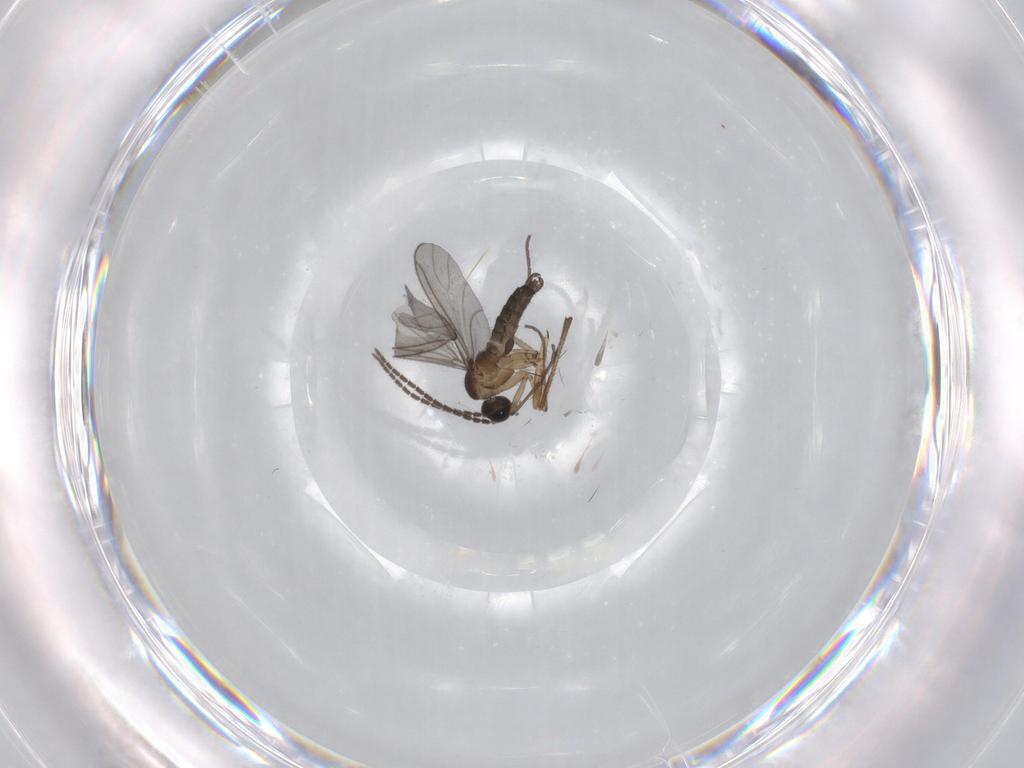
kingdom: Animalia
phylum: Arthropoda
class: Insecta
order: Diptera
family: Sciaridae
